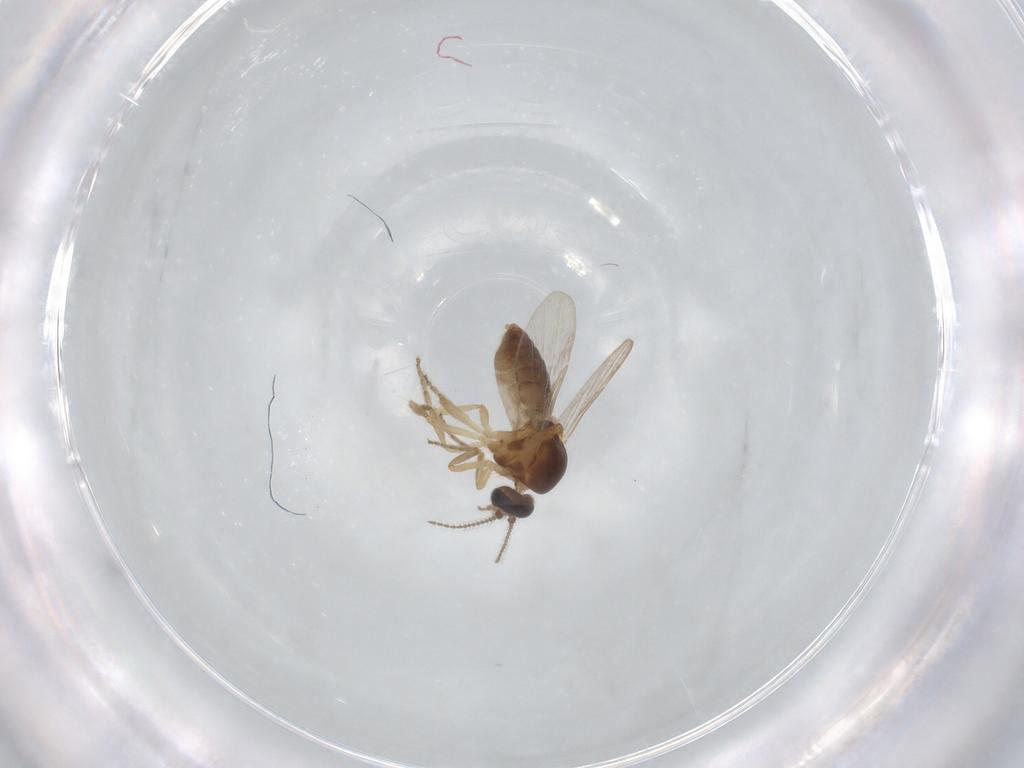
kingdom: Animalia
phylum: Arthropoda
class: Insecta
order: Diptera
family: Ceratopogonidae
